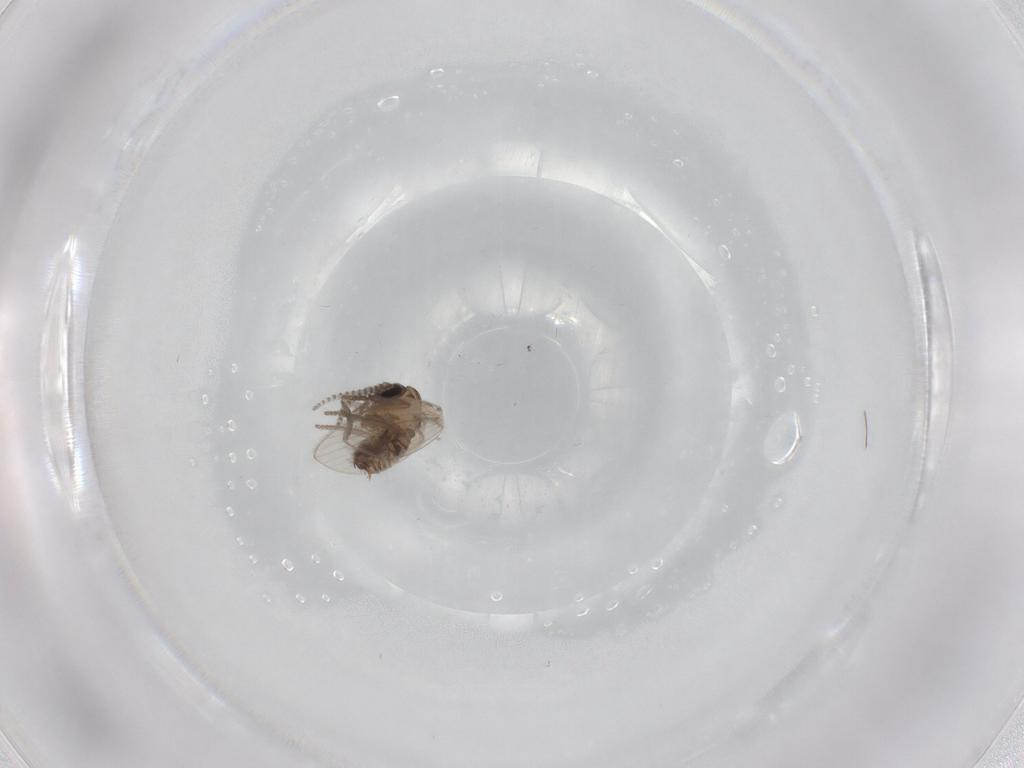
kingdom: Animalia
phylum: Arthropoda
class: Insecta
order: Diptera
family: Psychodidae
